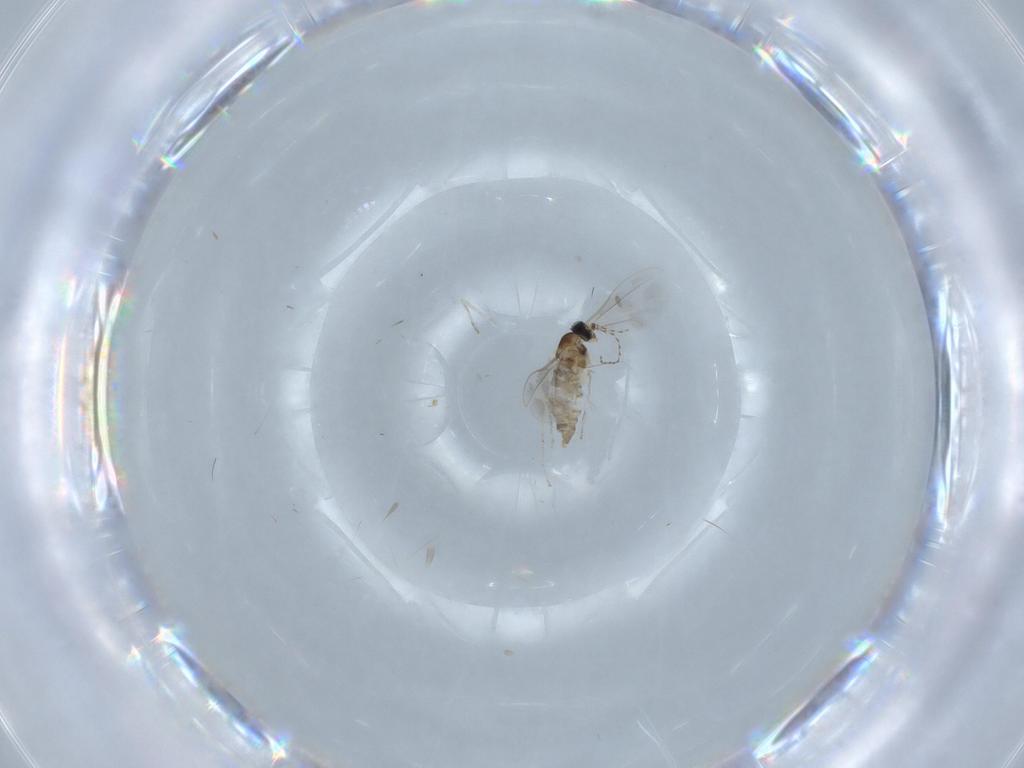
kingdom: Animalia
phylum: Arthropoda
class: Insecta
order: Diptera
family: Cecidomyiidae
